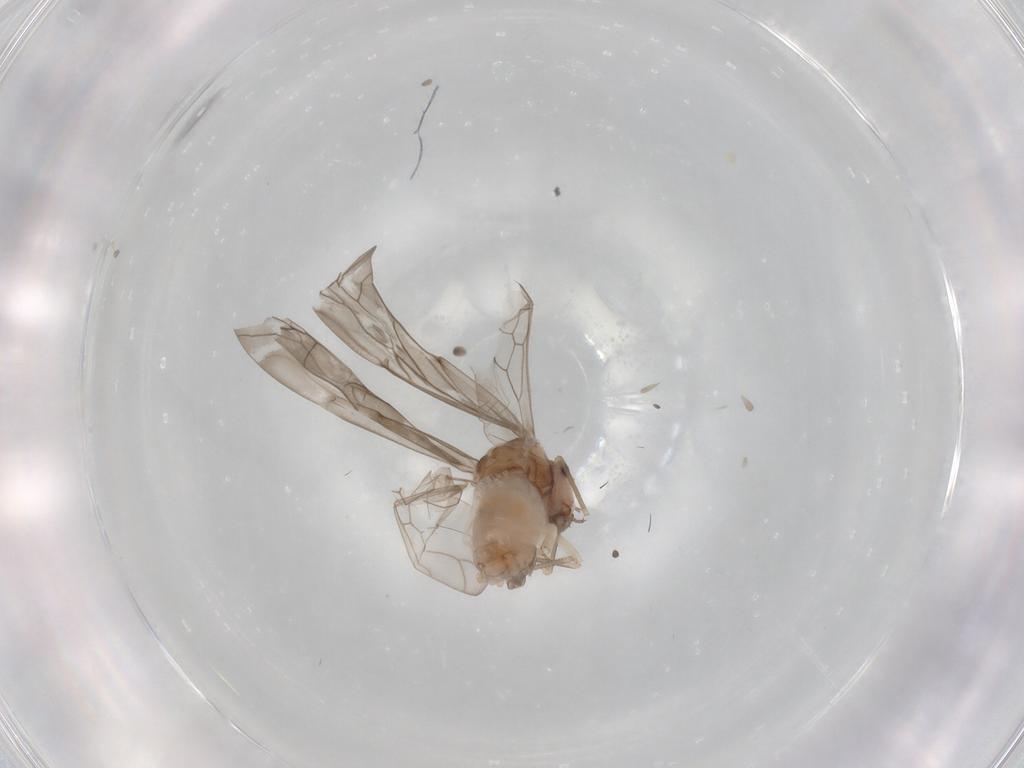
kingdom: Animalia
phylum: Arthropoda
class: Insecta
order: Psocodea
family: Peripsocidae
